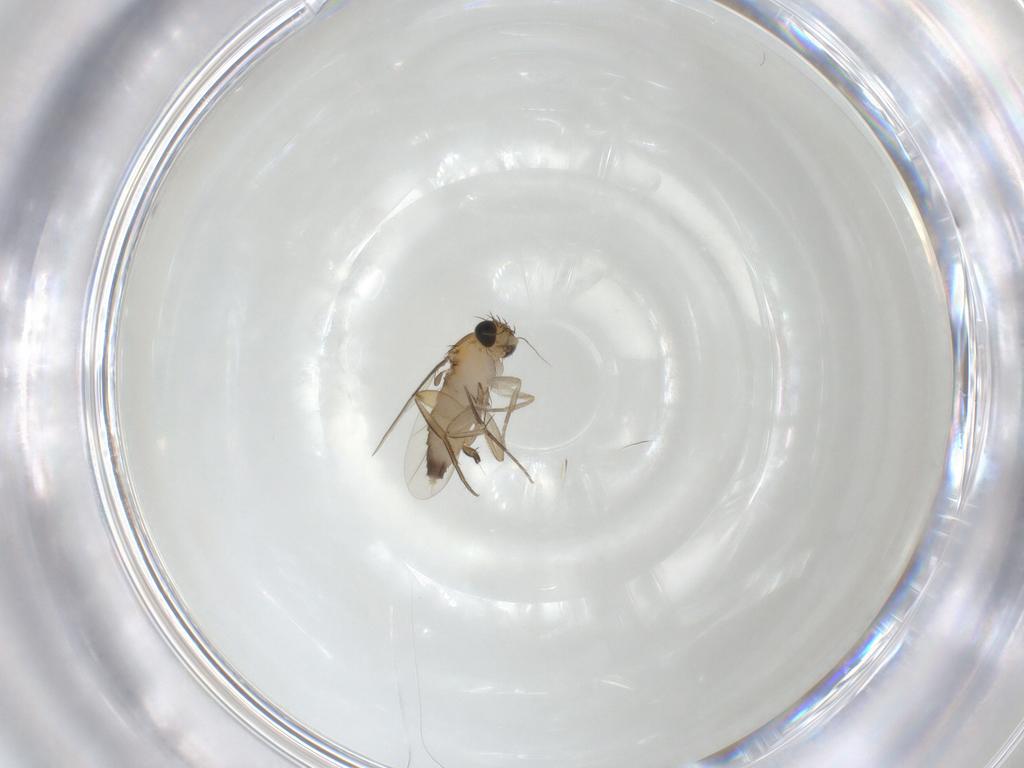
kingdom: Animalia
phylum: Arthropoda
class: Insecta
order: Diptera
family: Phoridae
